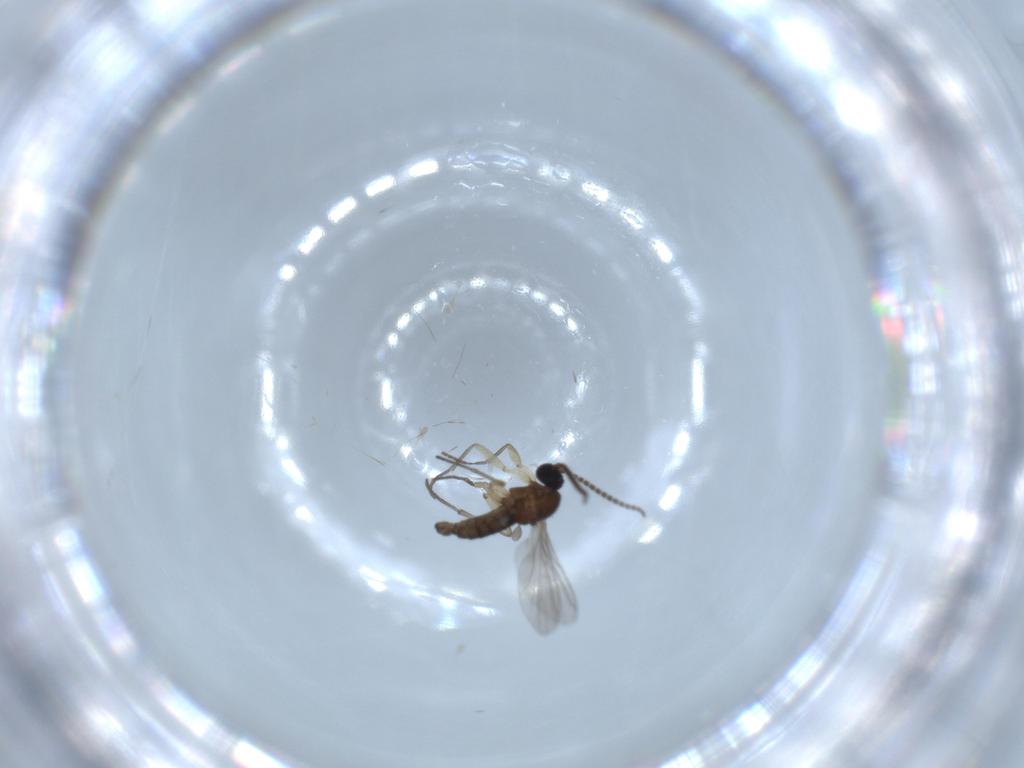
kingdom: Animalia
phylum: Arthropoda
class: Insecta
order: Diptera
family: Sciaridae
